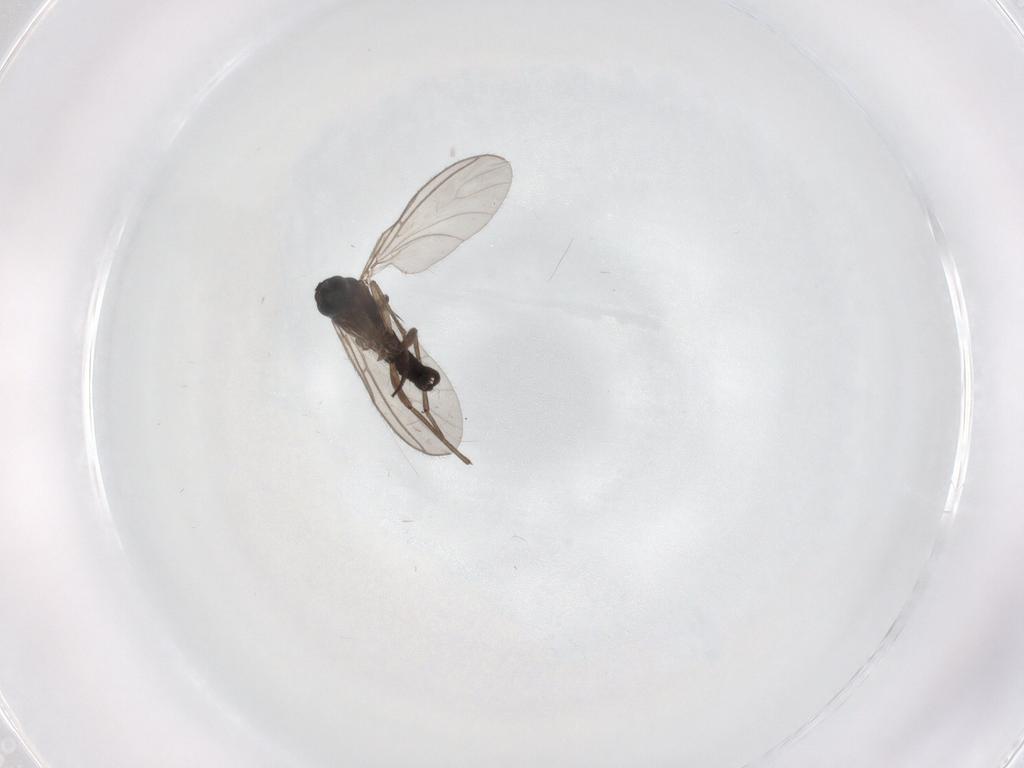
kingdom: Animalia
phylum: Arthropoda
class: Insecta
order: Diptera
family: Sciaridae
